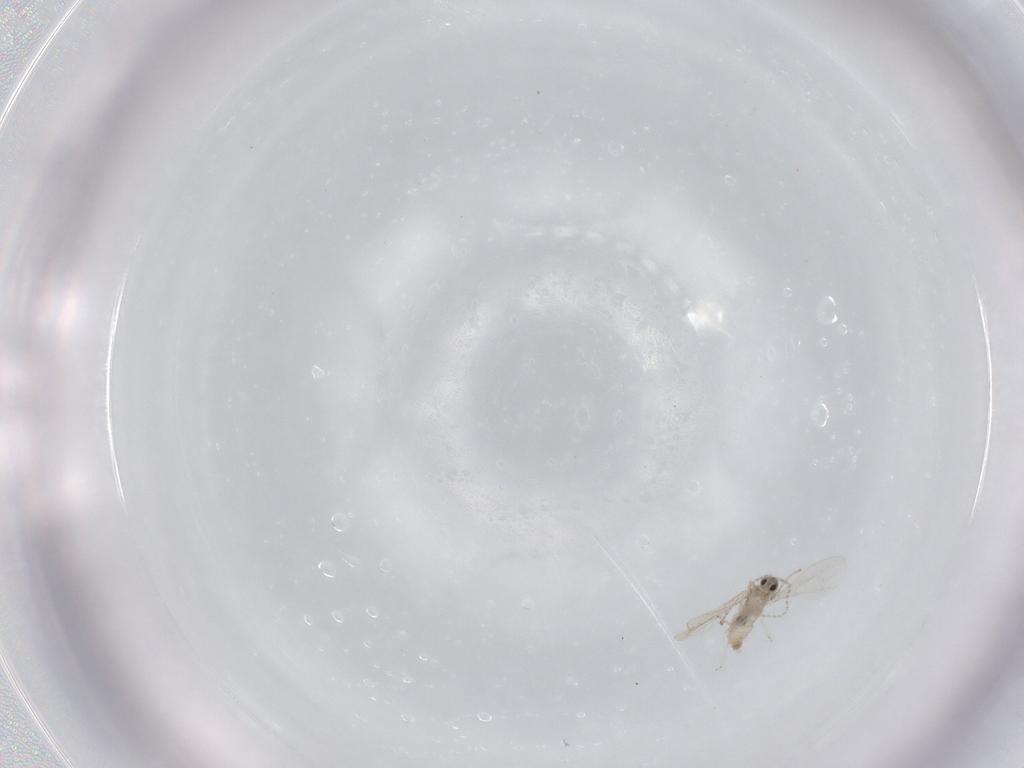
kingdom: Animalia
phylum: Arthropoda
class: Insecta
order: Diptera
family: Cecidomyiidae
